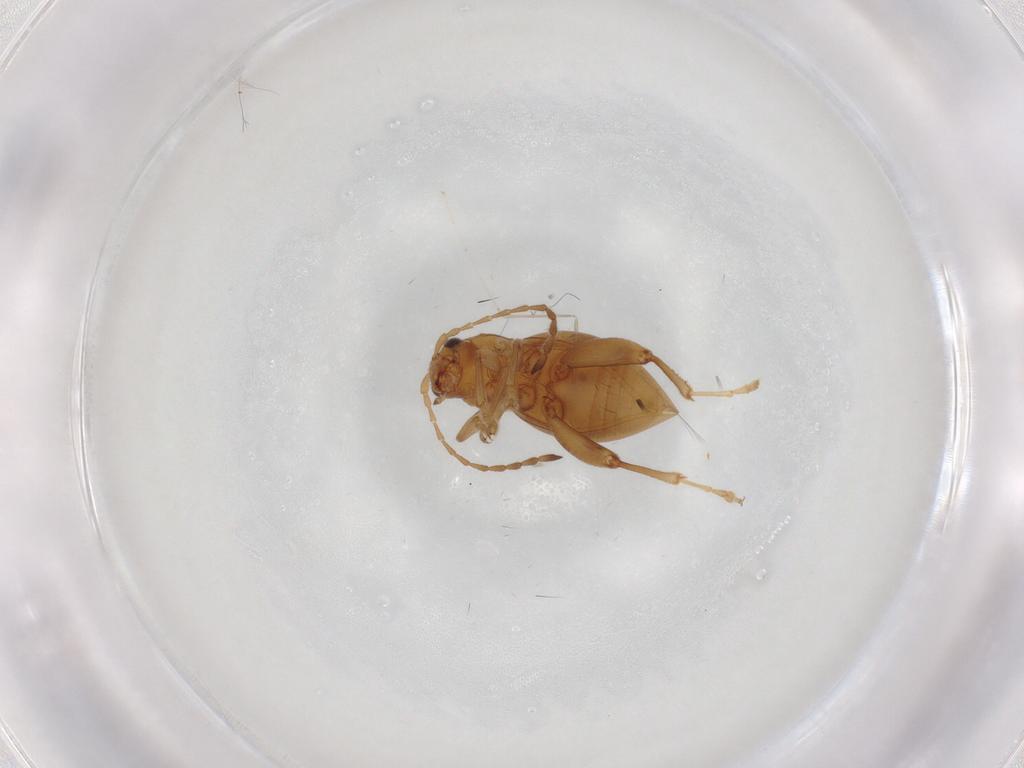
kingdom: Animalia
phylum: Arthropoda
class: Insecta
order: Coleoptera
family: Chrysomelidae
